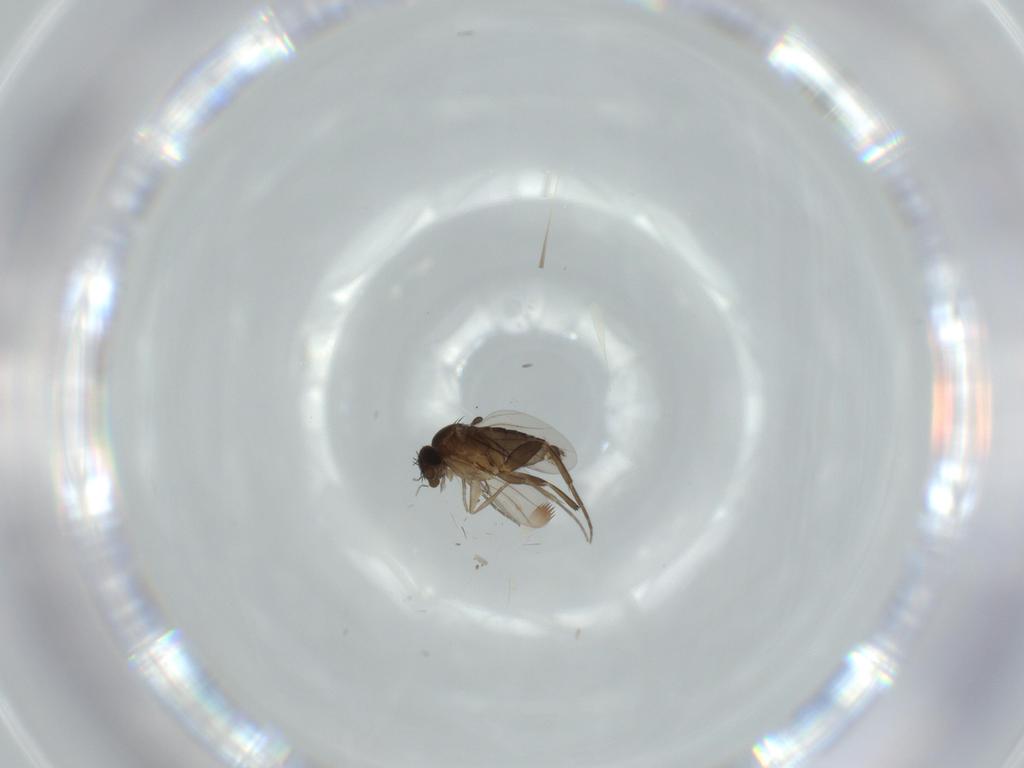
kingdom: Animalia
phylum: Arthropoda
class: Insecta
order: Diptera
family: Phoridae
